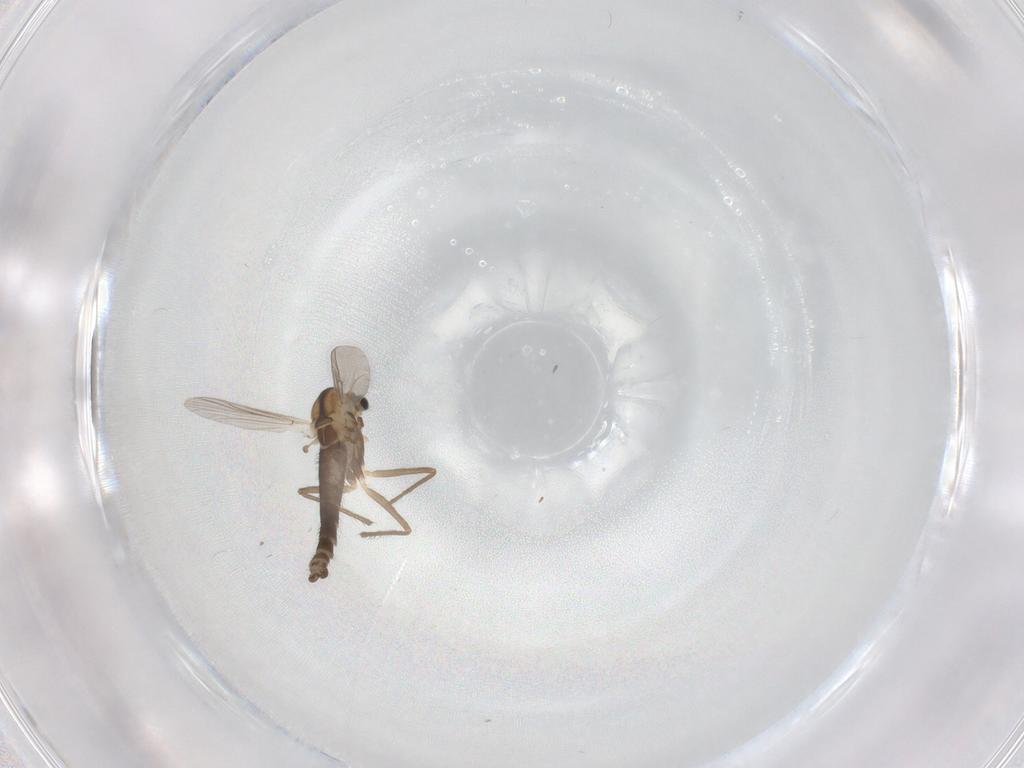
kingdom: Animalia
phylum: Arthropoda
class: Insecta
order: Diptera
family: Chironomidae
